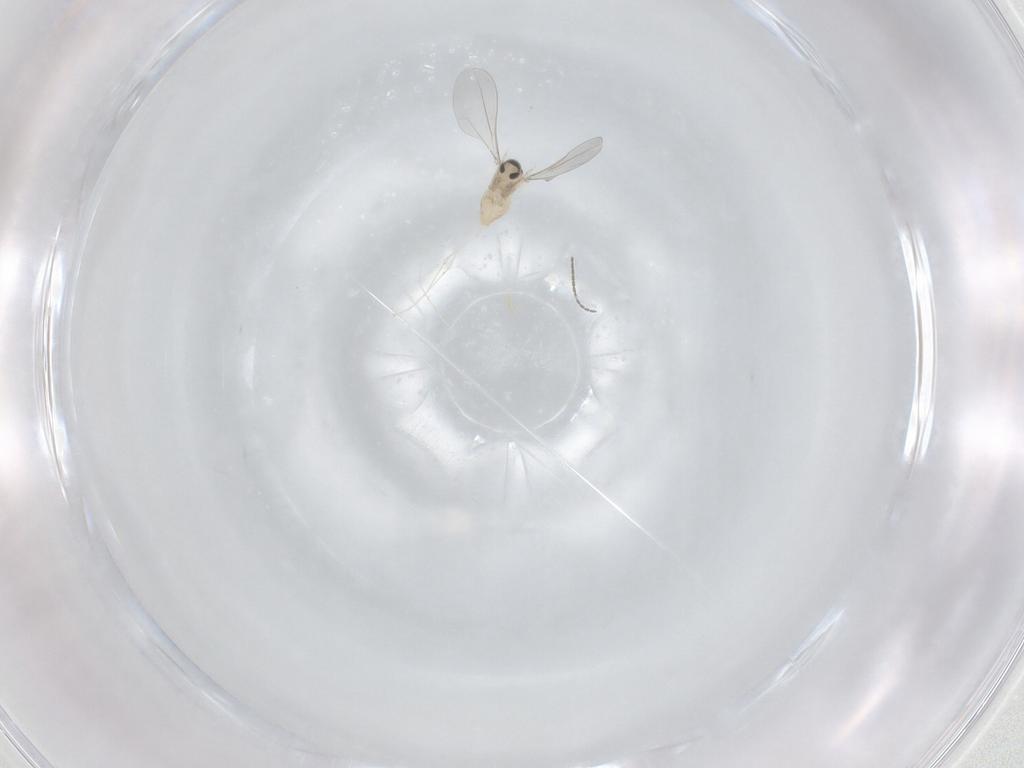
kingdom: Animalia
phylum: Arthropoda
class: Insecta
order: Diptera
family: Cecidomyiidae
